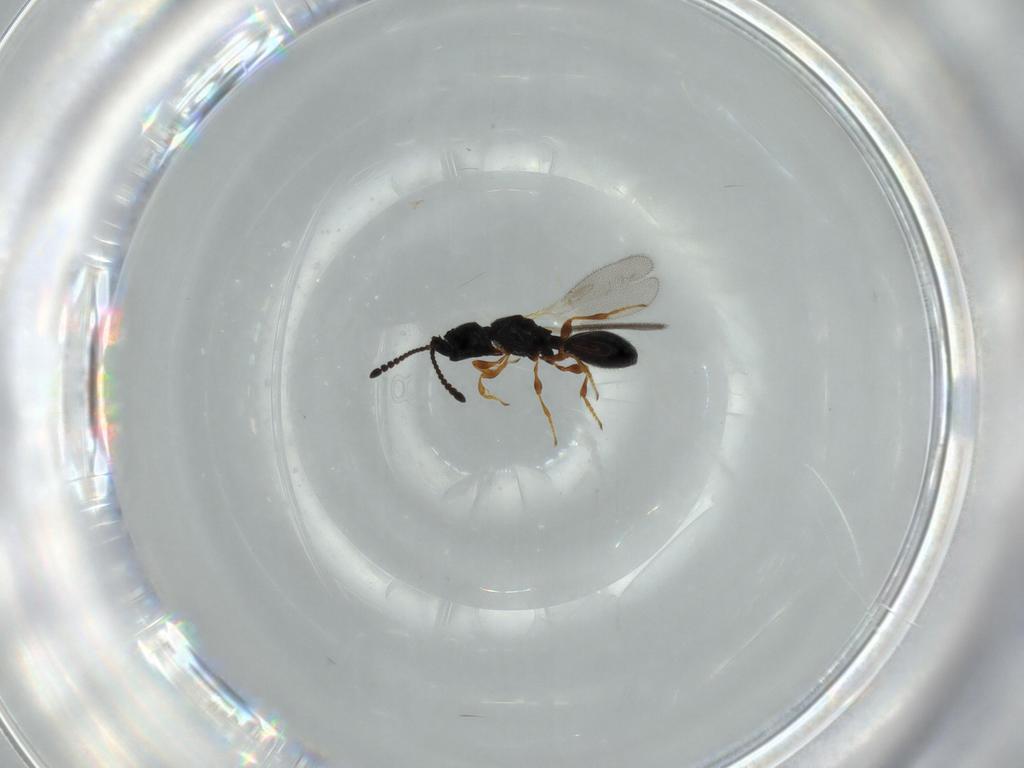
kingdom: Animalia
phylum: Arthropoda
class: Insecta
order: Hymenoptera
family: Diapriidae
